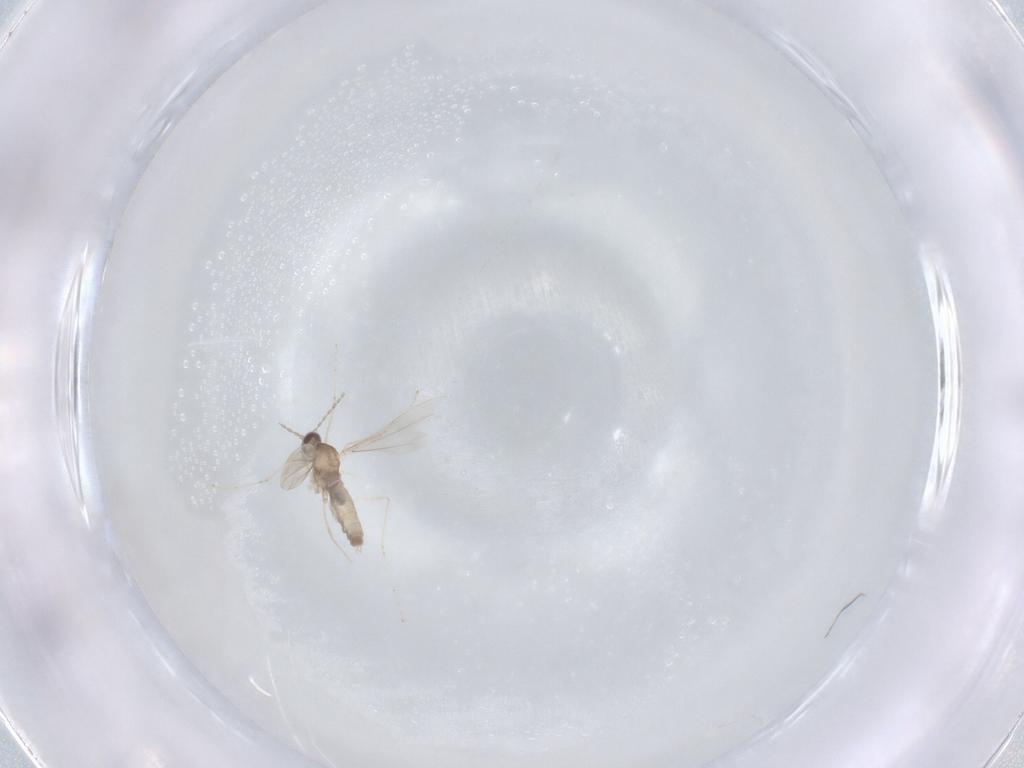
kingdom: Animalia
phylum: Arthropoda
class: Insecta
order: Diptera
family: Cecidomyiidae
